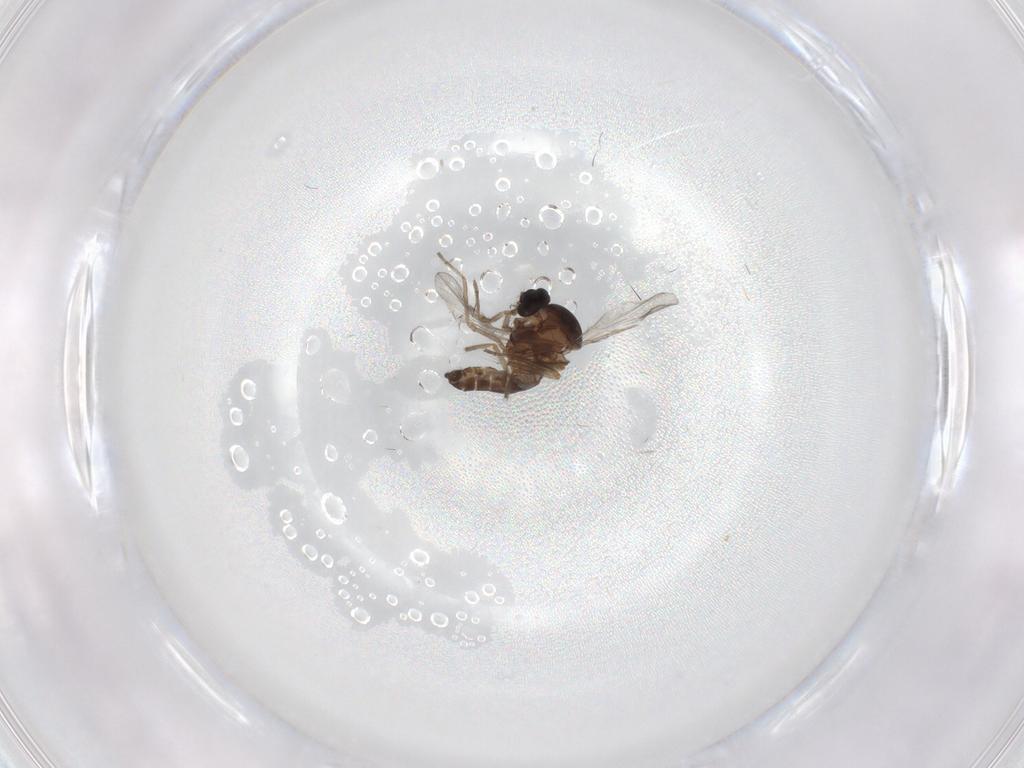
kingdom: Animalia
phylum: Arthropoda
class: Insecta
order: Diptera
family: Ceratopogonidae
